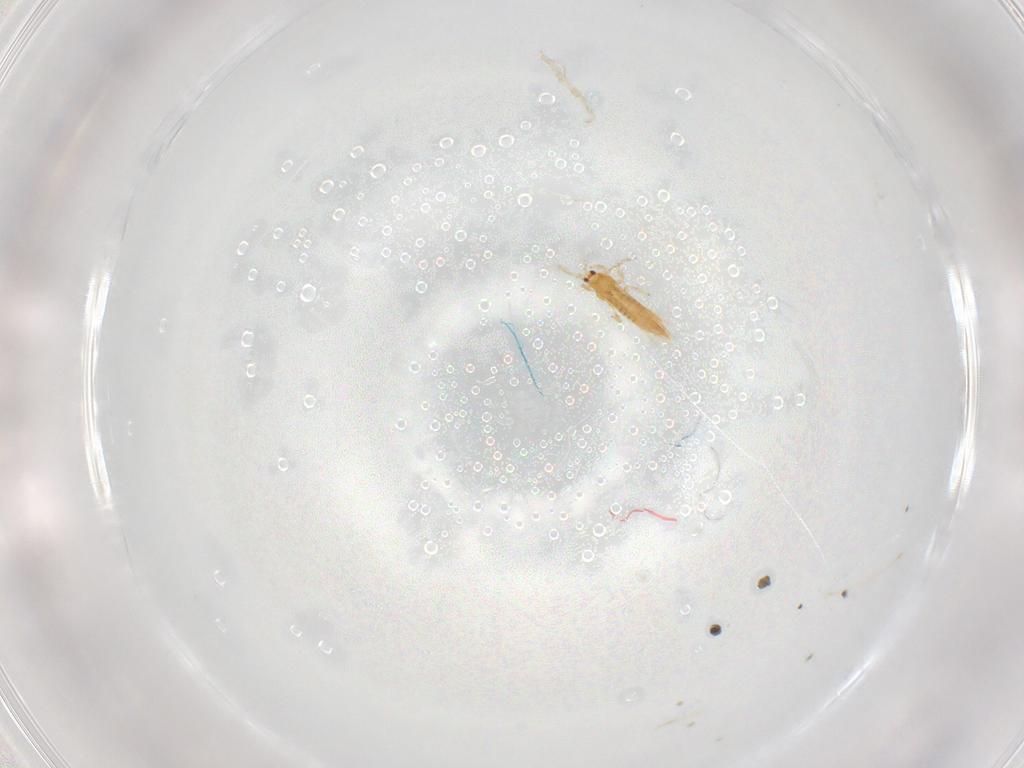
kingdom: Animalia
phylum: Arthropoda
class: Insecta
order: Thysanoptera
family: Thripidae
